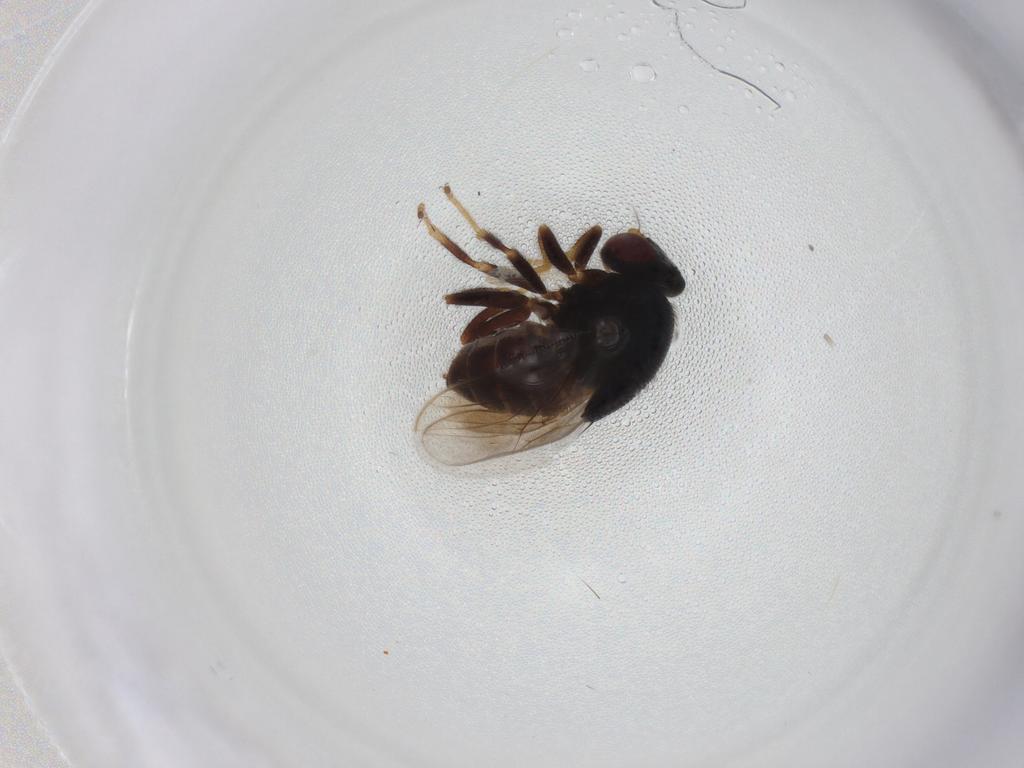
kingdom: Animalia
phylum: Arthropoda
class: Insecta
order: Diptera
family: Chloropidae
